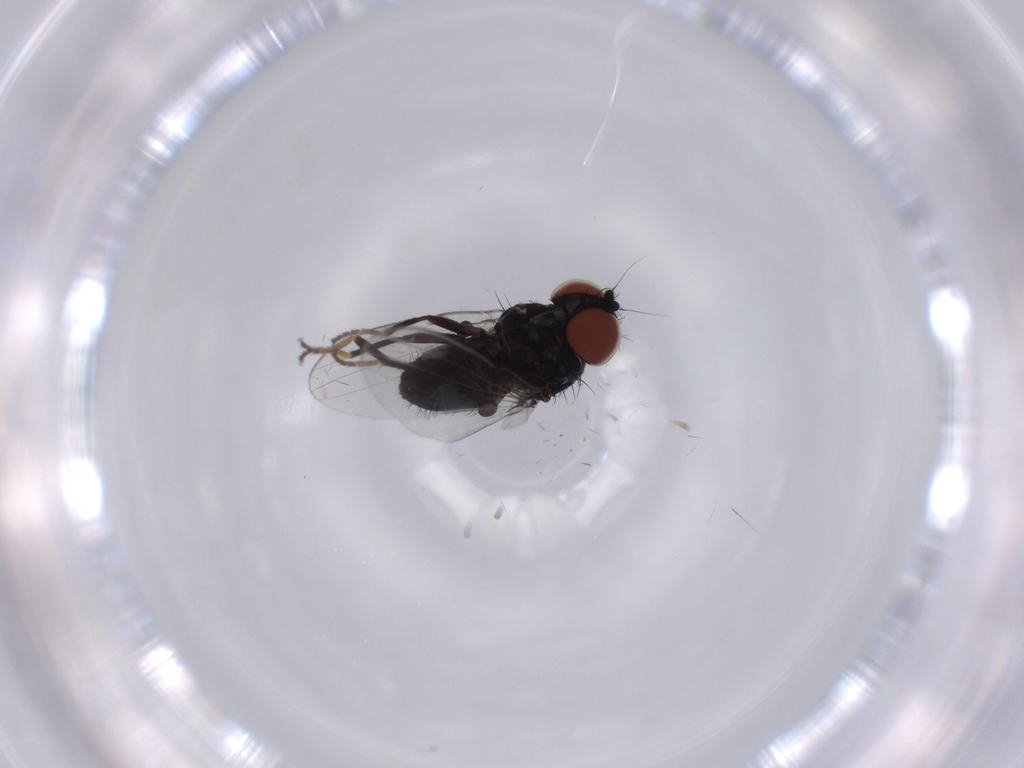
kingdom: Animalia
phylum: Arthropoda
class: Insecta
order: Diptera
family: Milichiidae
